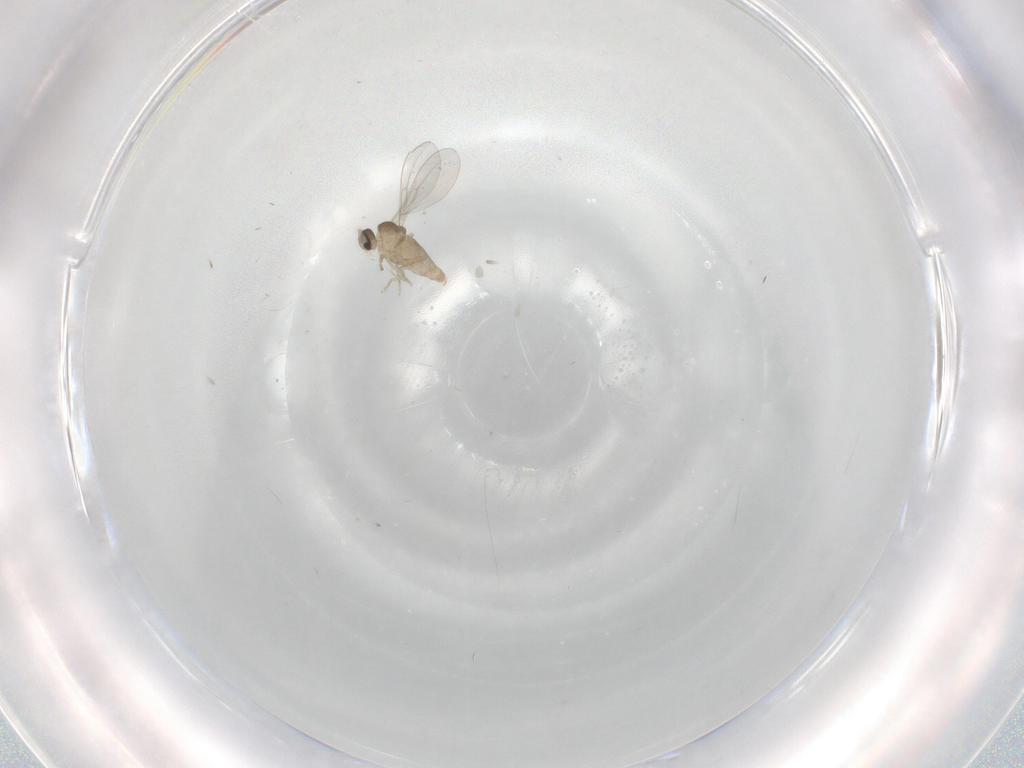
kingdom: Animalia
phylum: Arthropoda
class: Insecta
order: Diptera
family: Cecidomyiidae
